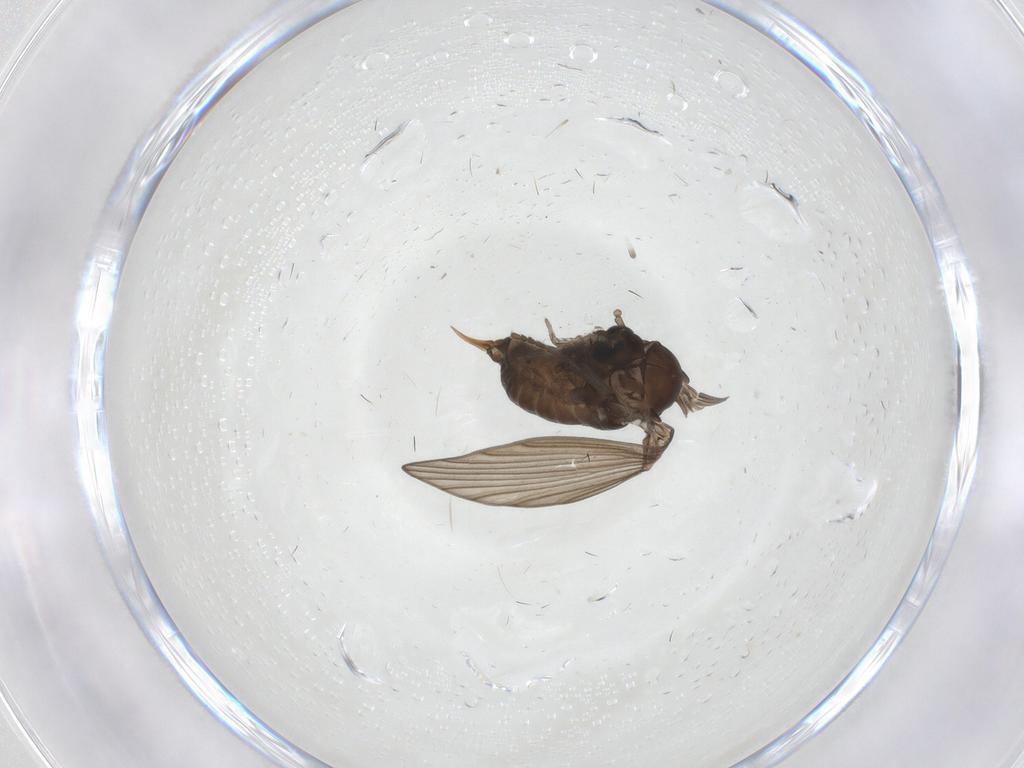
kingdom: Animalia
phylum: Arthropoda
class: Insecta
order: Diptera
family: Psychodidae
